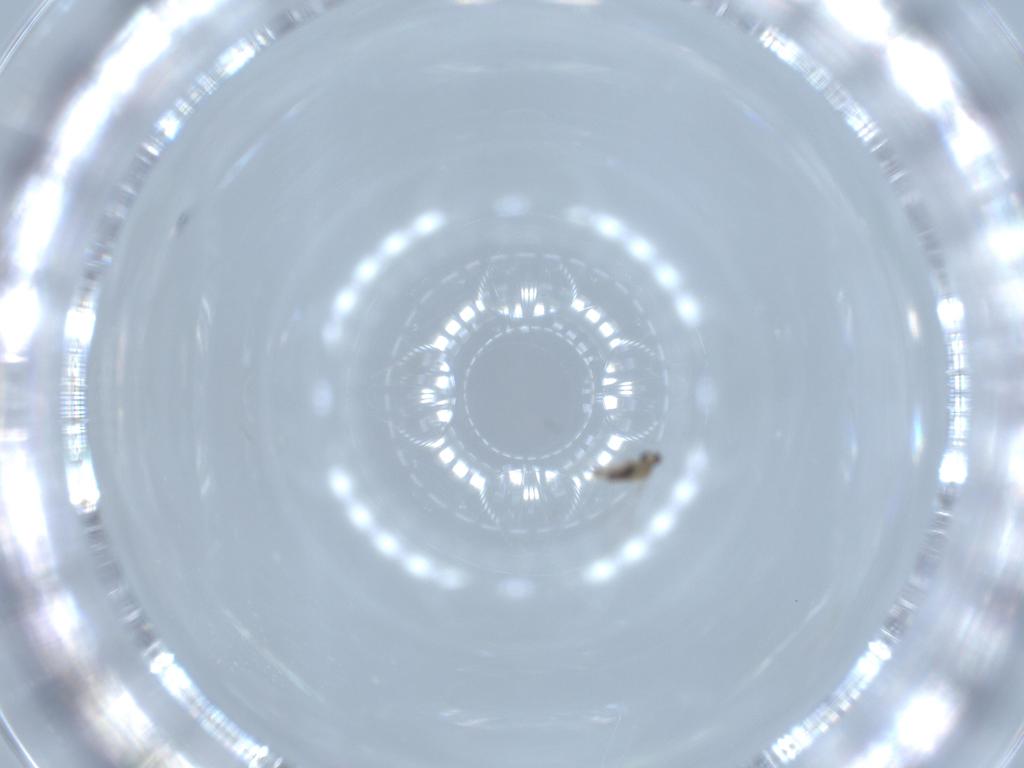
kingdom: Animalia
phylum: Arthropoda
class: Insecta
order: Diptera
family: Cecidomyiidae
